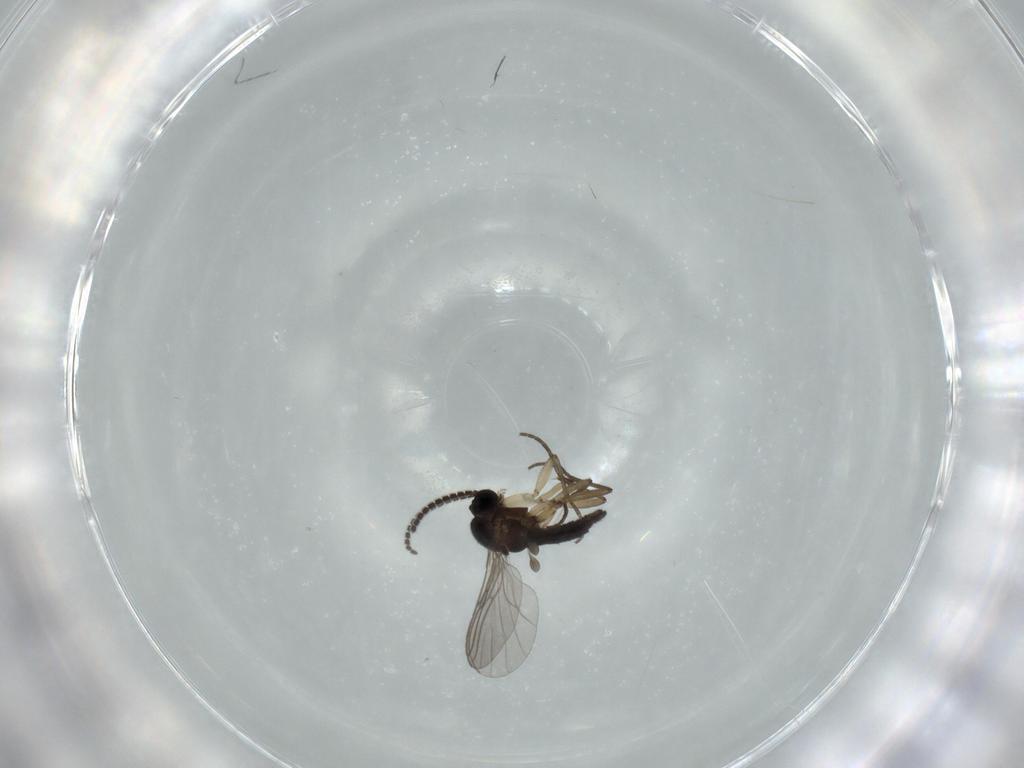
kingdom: Animalia
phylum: Arthropoda
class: Insecta
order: Diptera
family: Sciaridae
